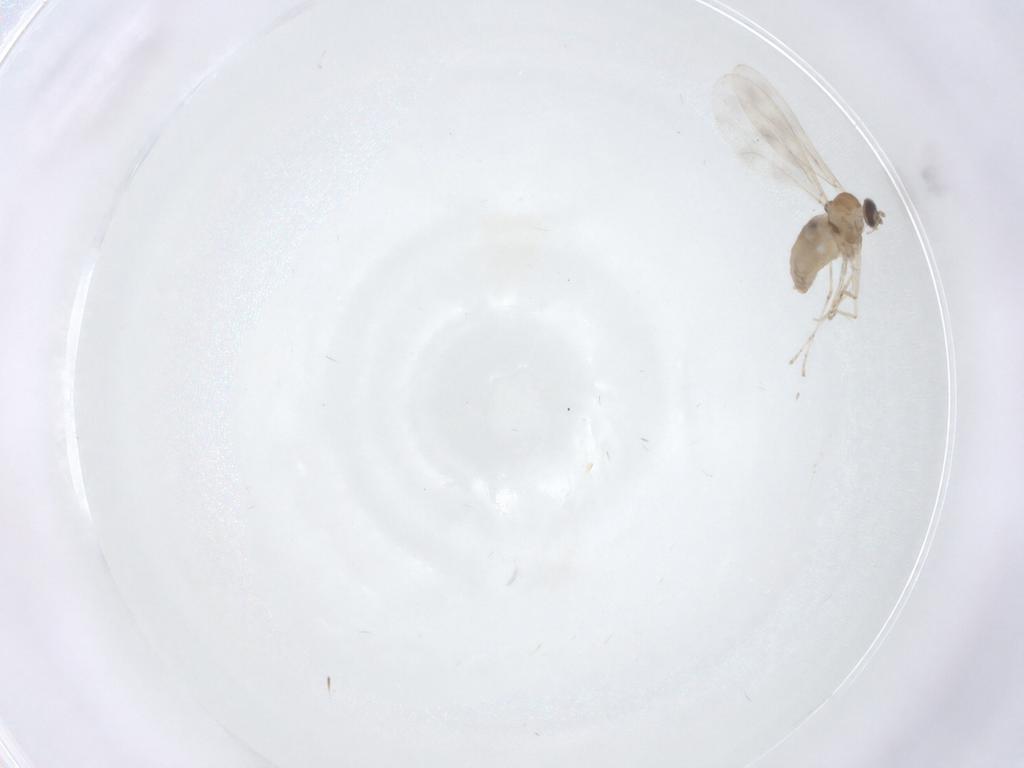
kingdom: Animalia
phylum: Arthropoda
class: Insecta
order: Diptera
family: Cecidomyiidae
